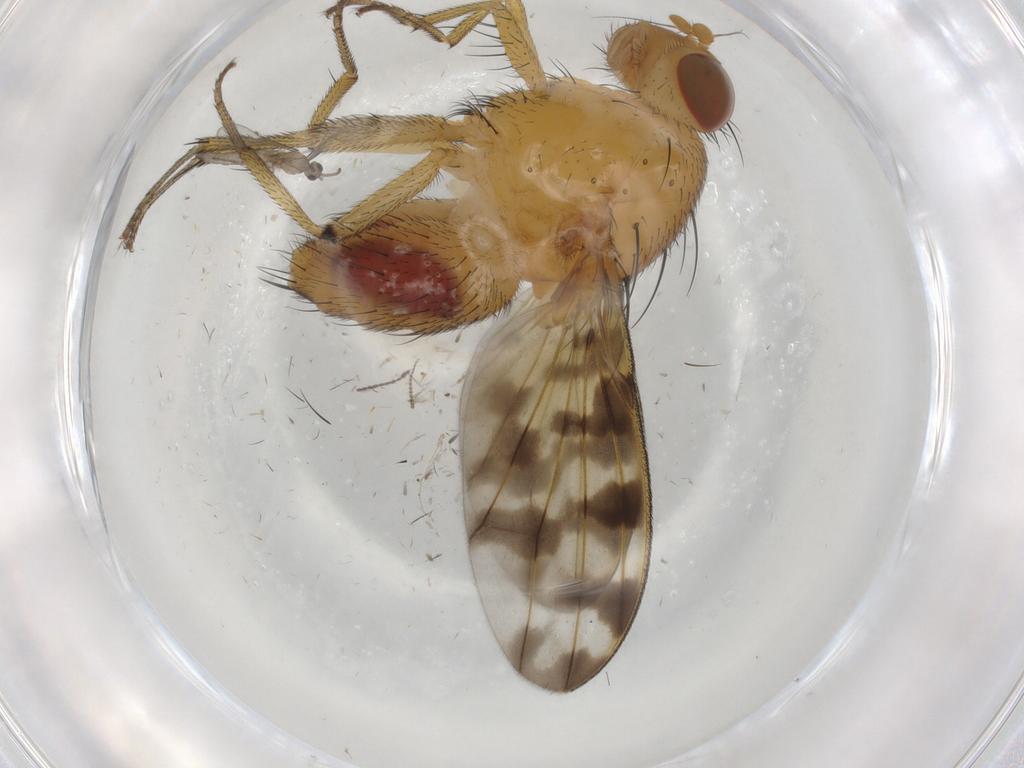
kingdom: Animalia
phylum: Arthropoda
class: Insecta
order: Diptera
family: Cecidomyiidae
